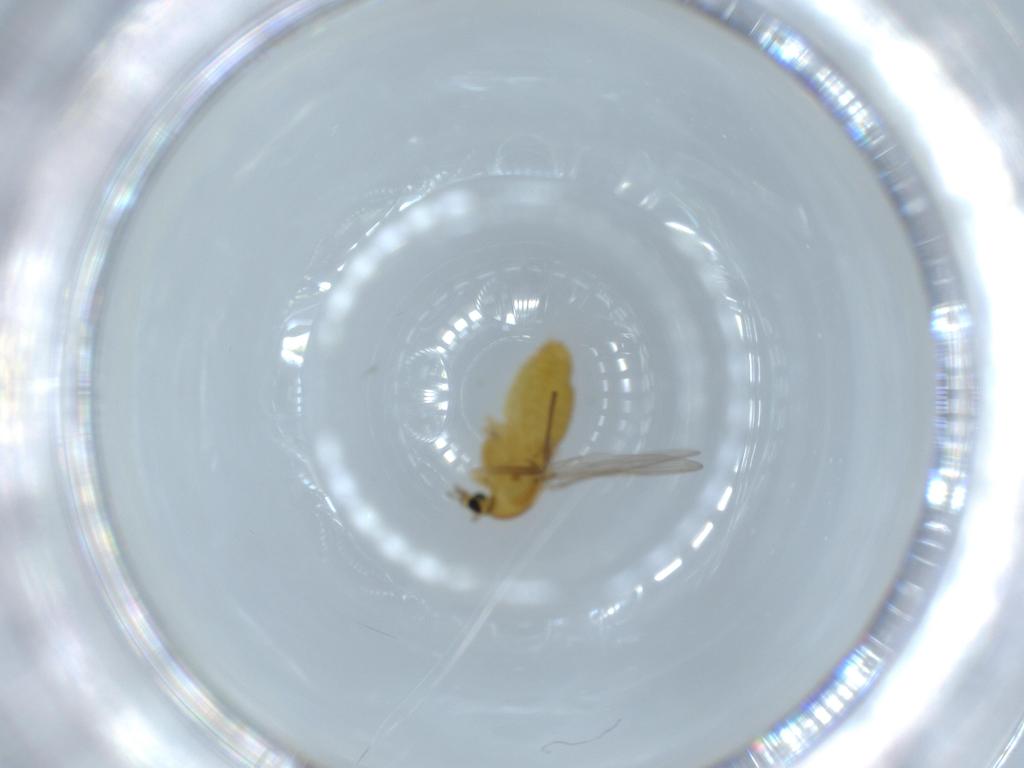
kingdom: Animalia
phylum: Arthropoda
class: Insecta
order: Diptera
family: Chironomidae
